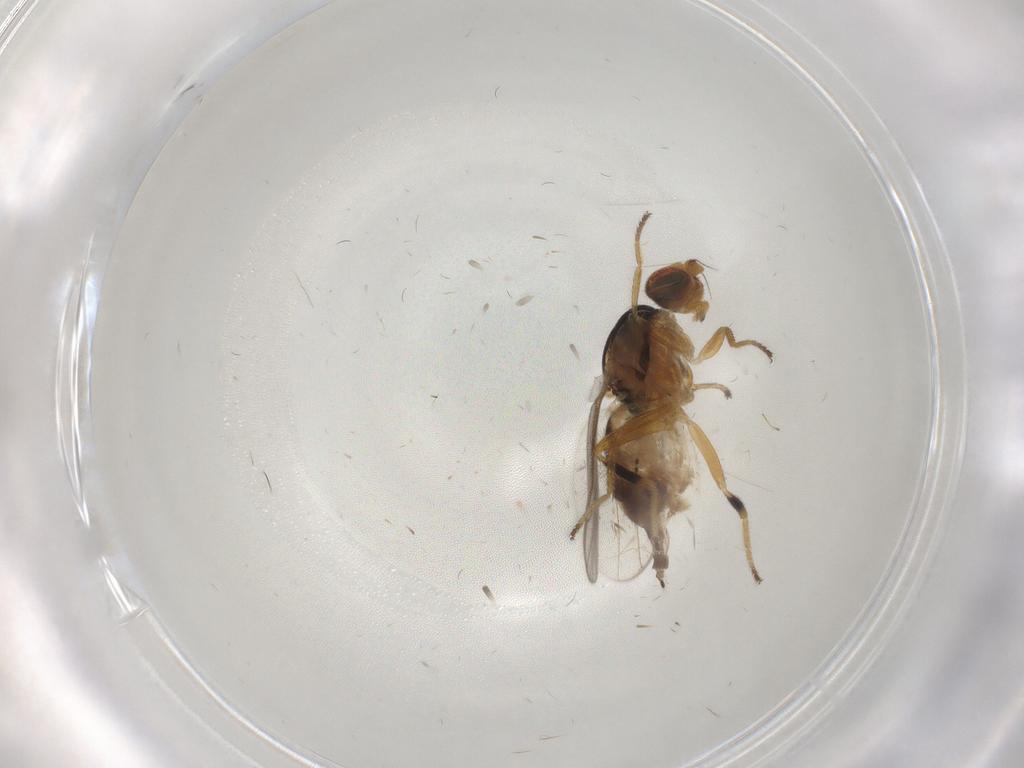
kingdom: Animalia
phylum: Arthropoda
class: Insecta
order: Diptera
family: Chloropidae
